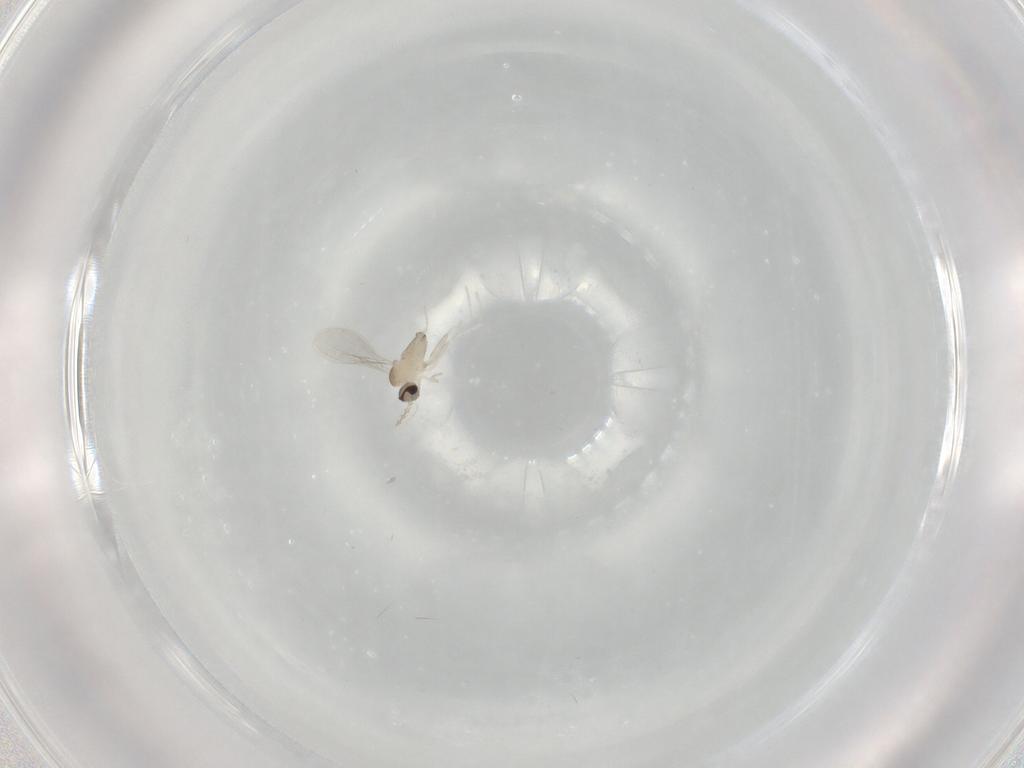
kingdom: Animalia
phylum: Arthropoda
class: Insecta
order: Diptera
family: Cecidomyiidae
